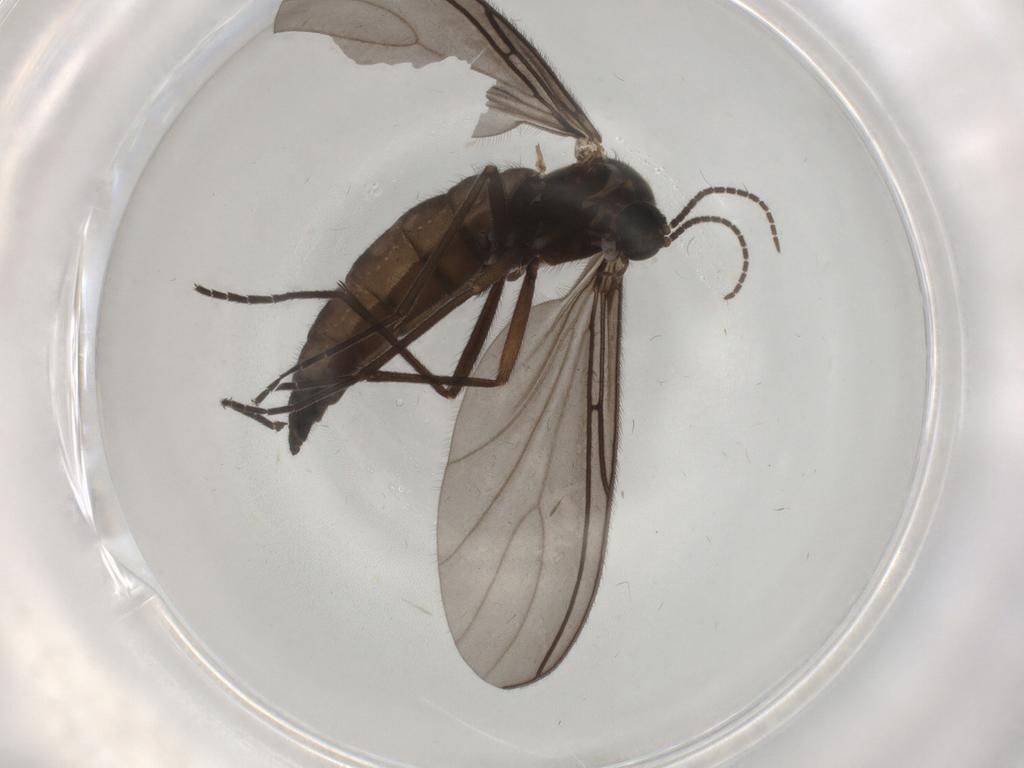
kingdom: Animalia
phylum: Arthropoda
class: Insecta
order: Diptera
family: Sciaridae
